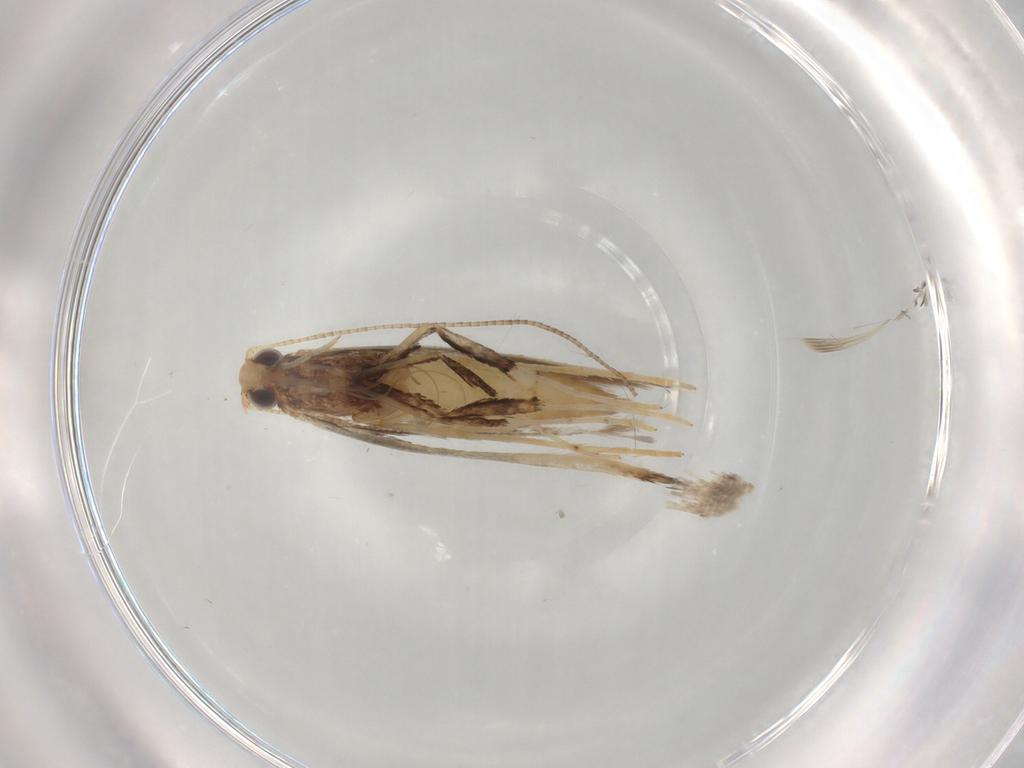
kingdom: Animalia
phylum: Arthropoda
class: Insecta
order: Lepidoptera
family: Gracillariidae
